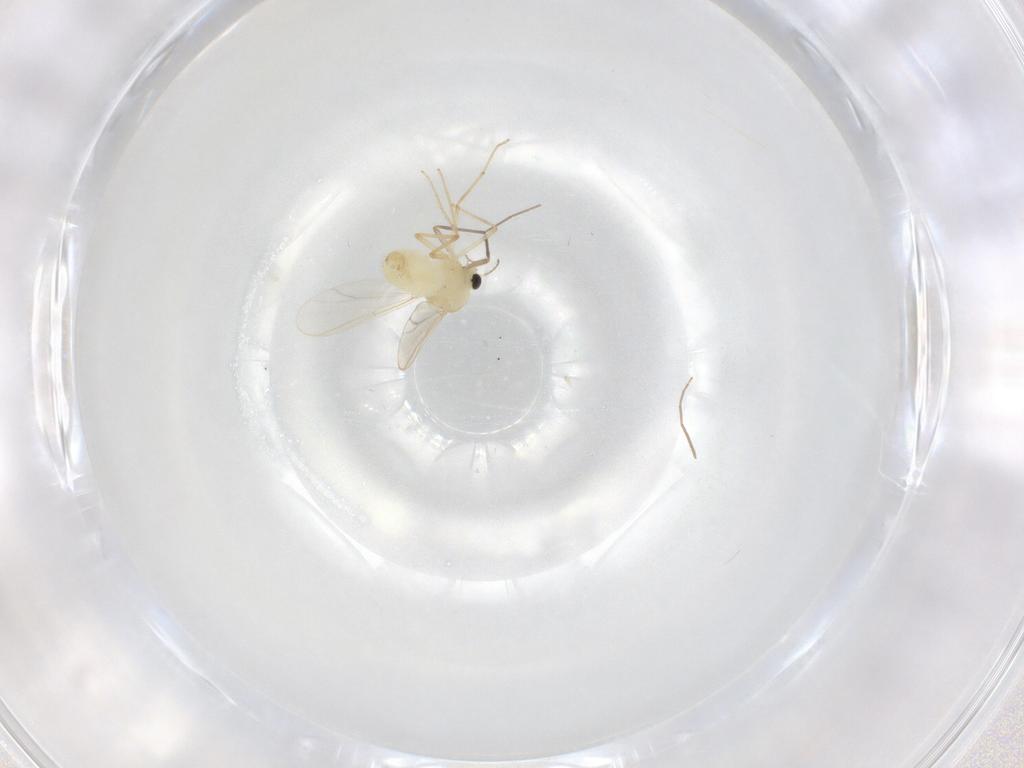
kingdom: Animalia
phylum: Arthropoda
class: Insecta
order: Diptera
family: Chironomidae
